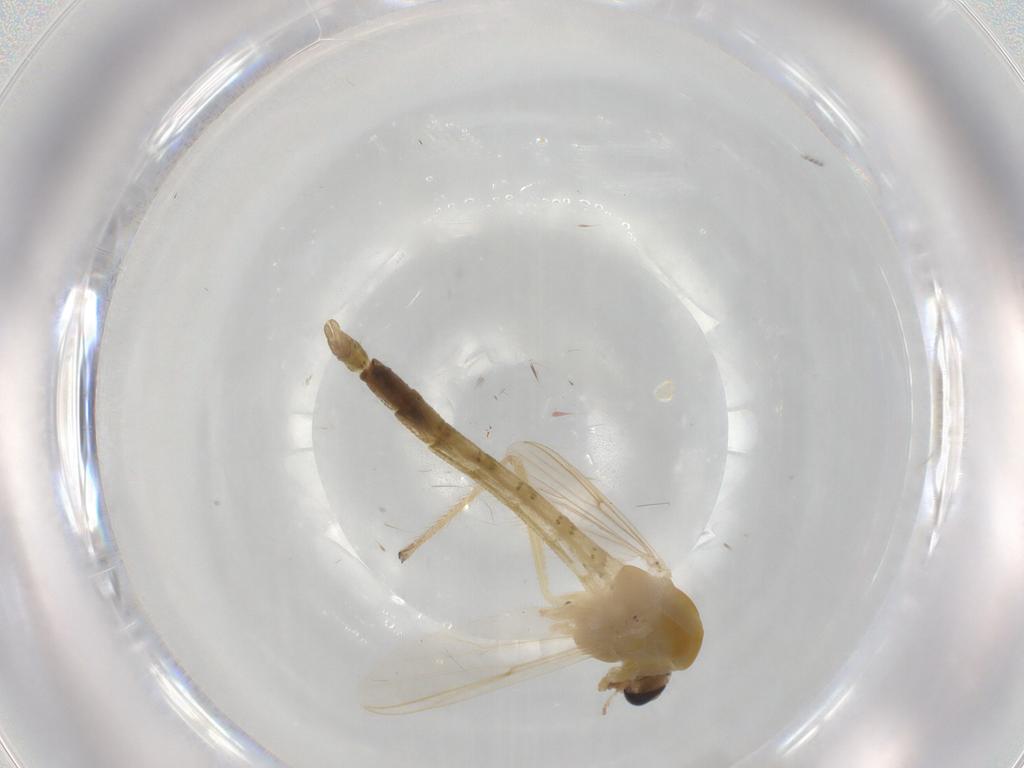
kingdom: Animalia
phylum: Arthropoda
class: Insecta
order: Diptera
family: Chironomidae
